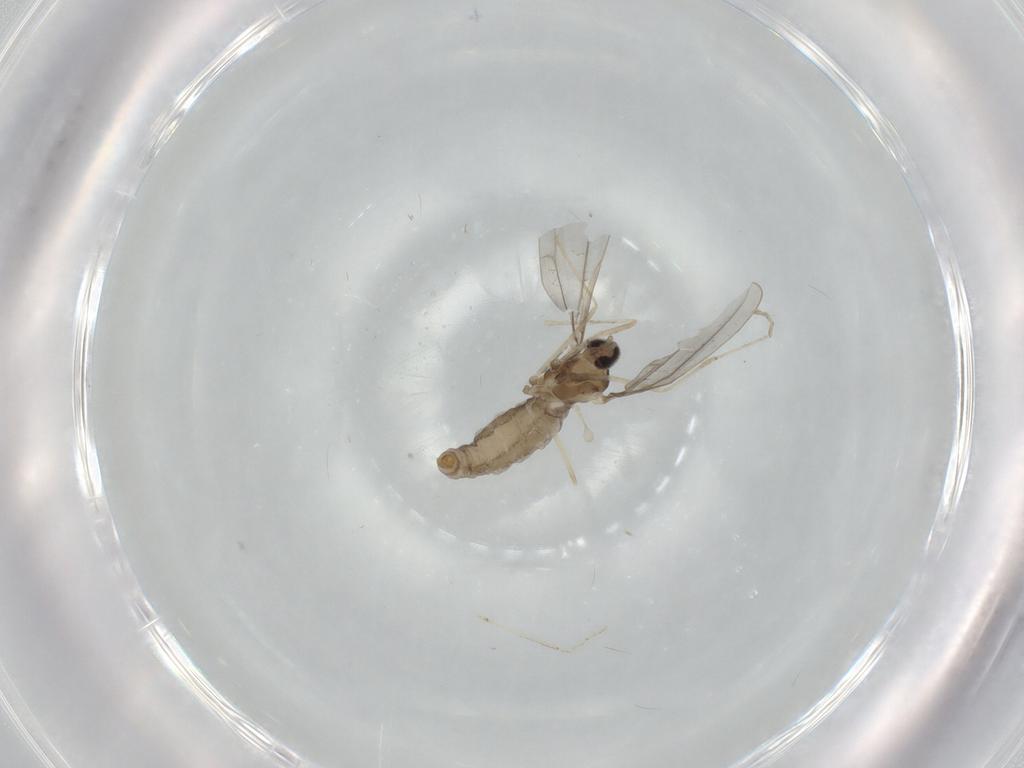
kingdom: Animalia
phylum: Arthropoda
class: Insecta
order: Diptera
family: Cecidomyiidae
